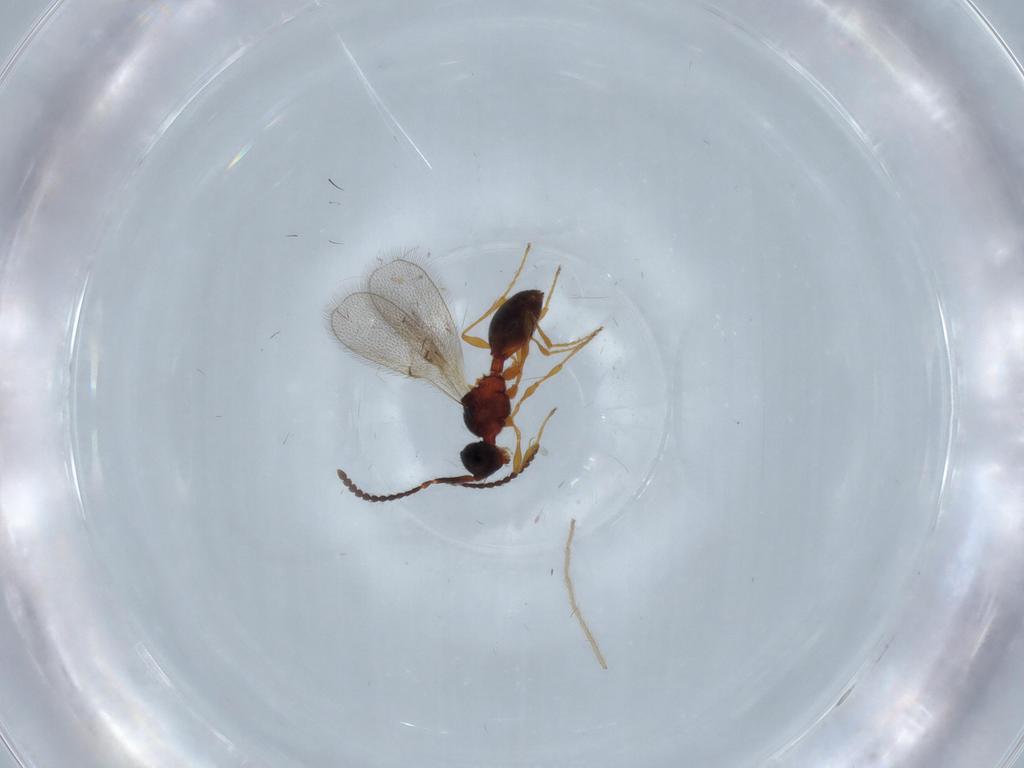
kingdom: Animalia
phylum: Arthropoda
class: Insecta
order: Hymenoptera
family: Diapriidae
